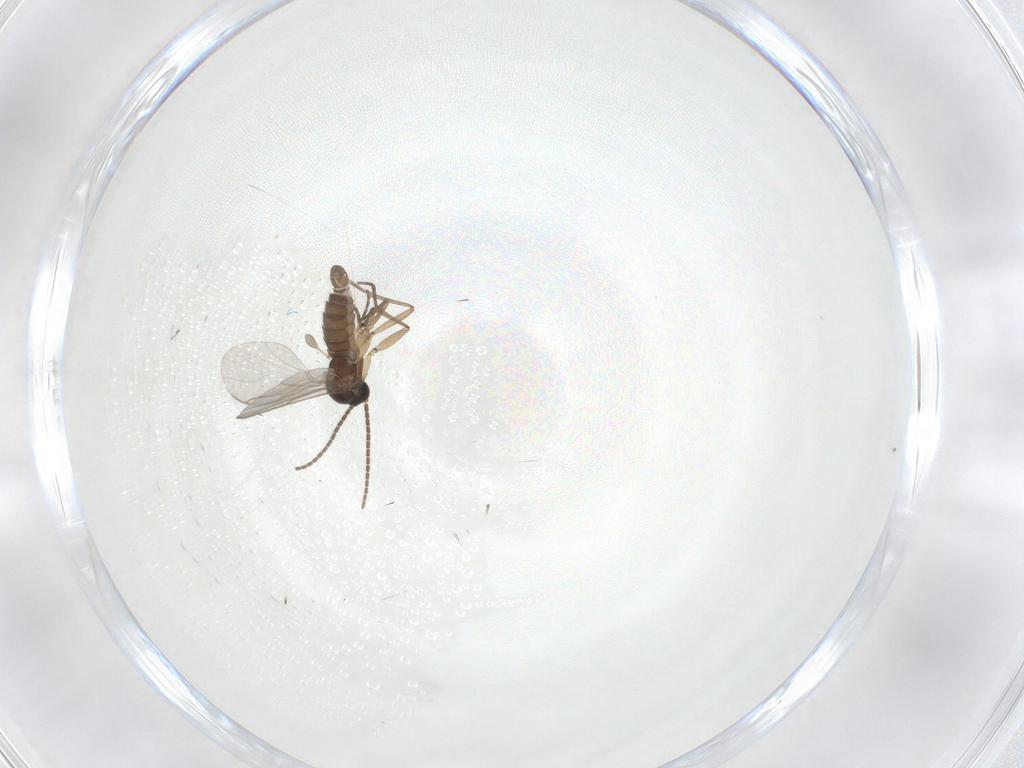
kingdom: Animalia
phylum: Arthropoda
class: Insecta
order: Diptera
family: Sciaridae
